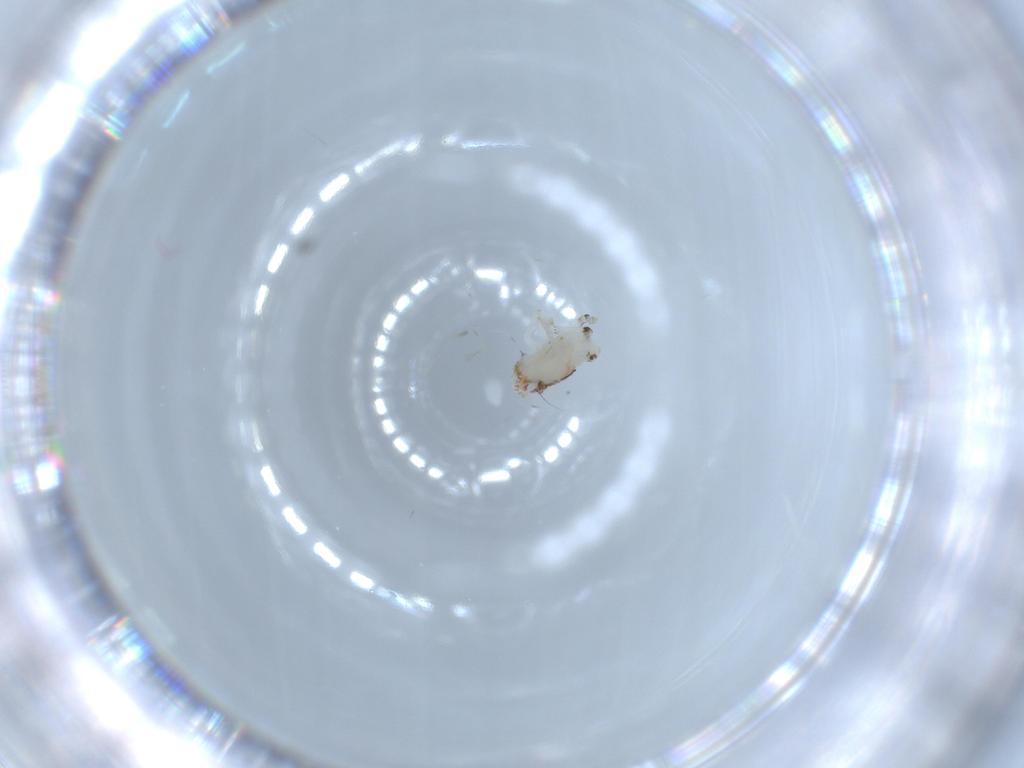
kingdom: Animalia
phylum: Arthropoda
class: Insecta
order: Hemiptera
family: Nogodinidae
